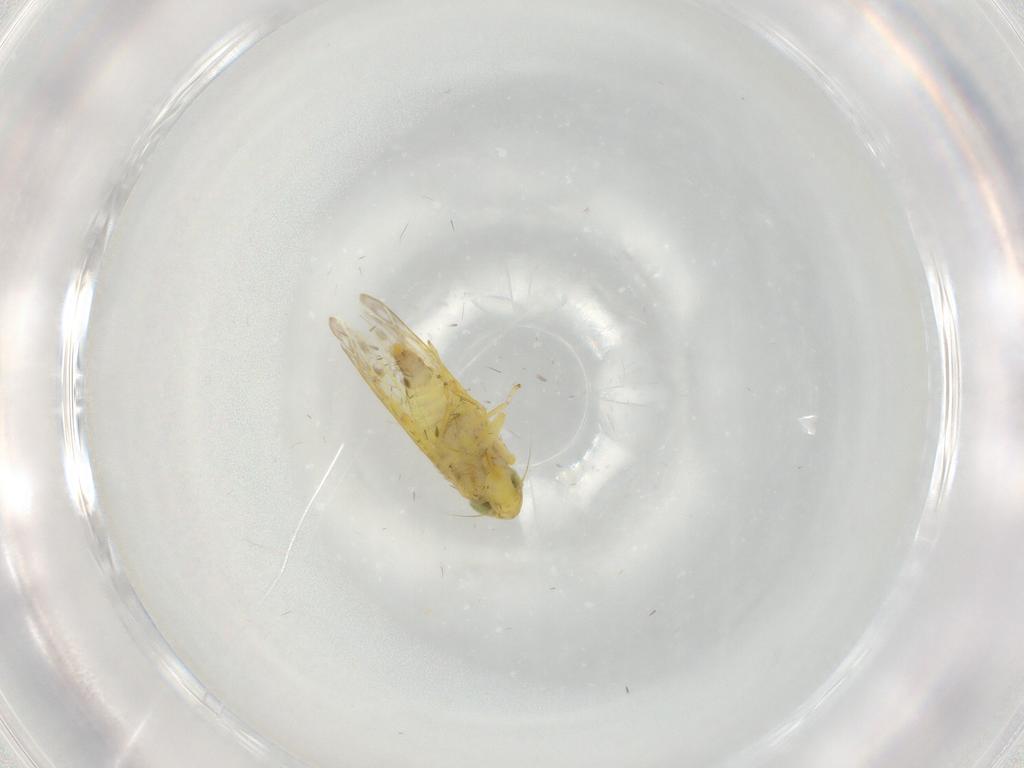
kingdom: Animalia
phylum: Arthropoda
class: Insecta
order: Hemiptera
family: Cicadellidae
